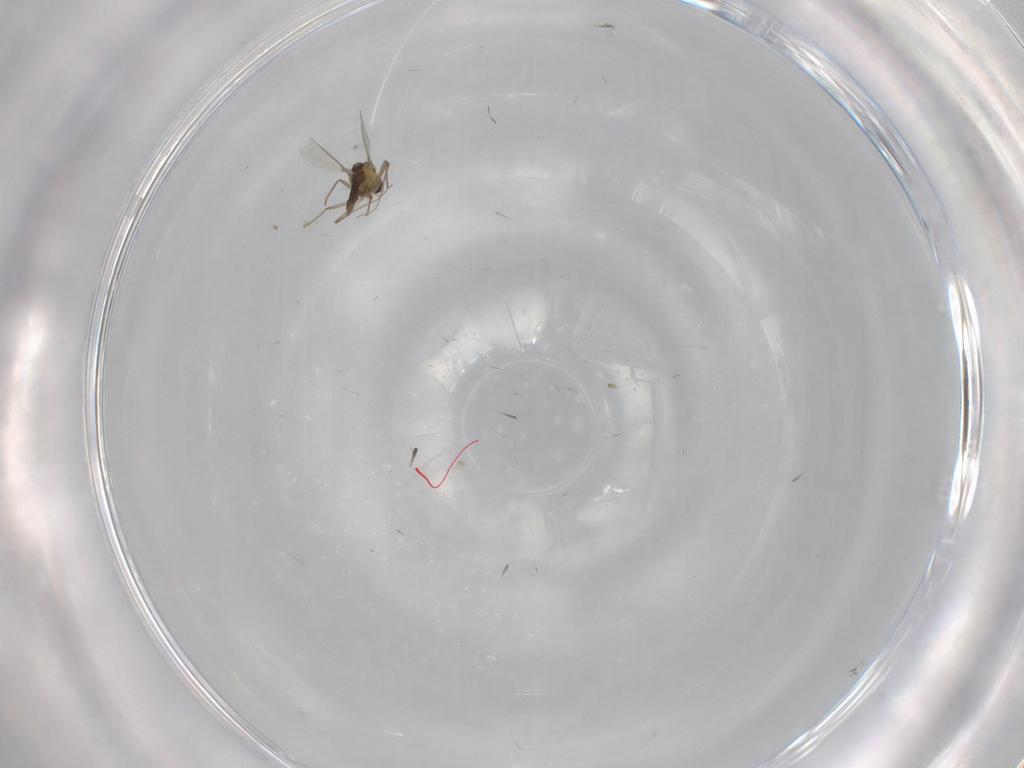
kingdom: Animalia
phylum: Arthropoda
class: Insecta
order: Diptera
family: Chironomidae
